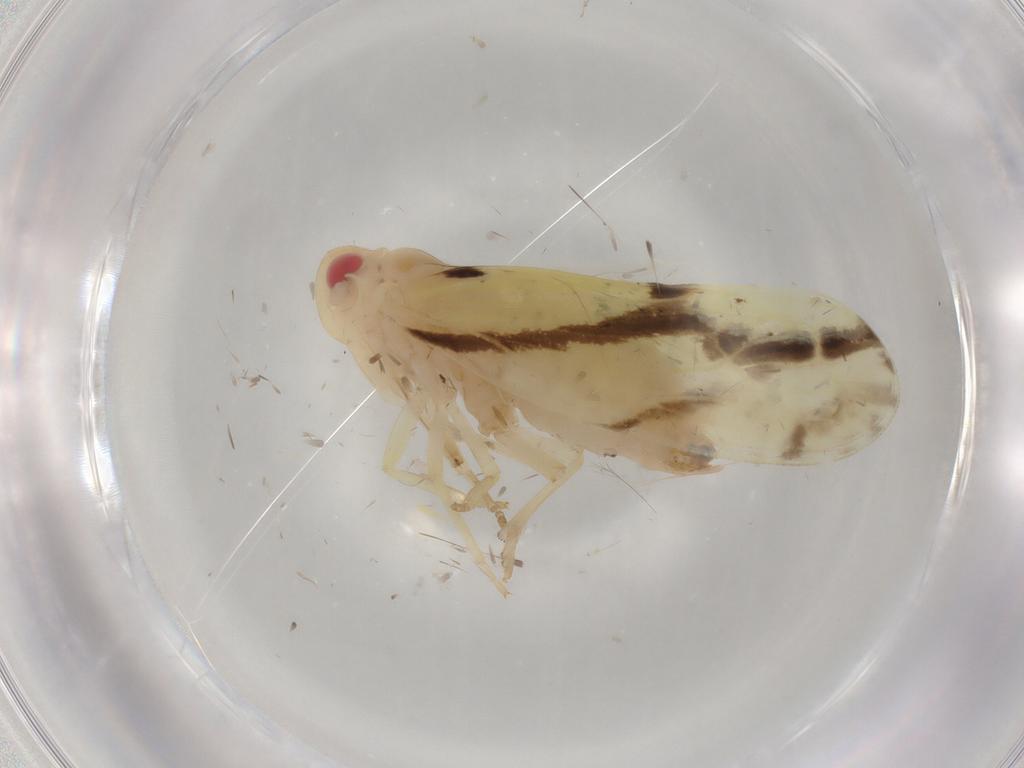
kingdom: Animalia
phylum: Arthropoda
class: Insecta
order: Hemiptera
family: Derbidae
